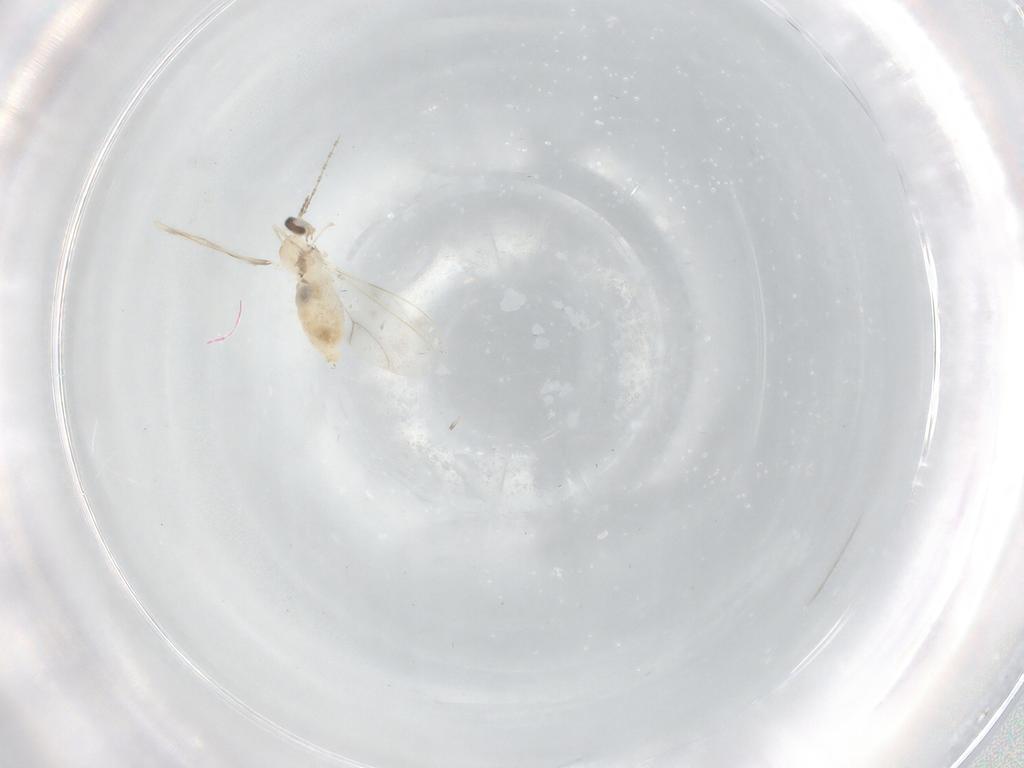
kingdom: Animalia
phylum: Arthropoda
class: Insecta
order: Diptera
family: Cecidomyiidae
